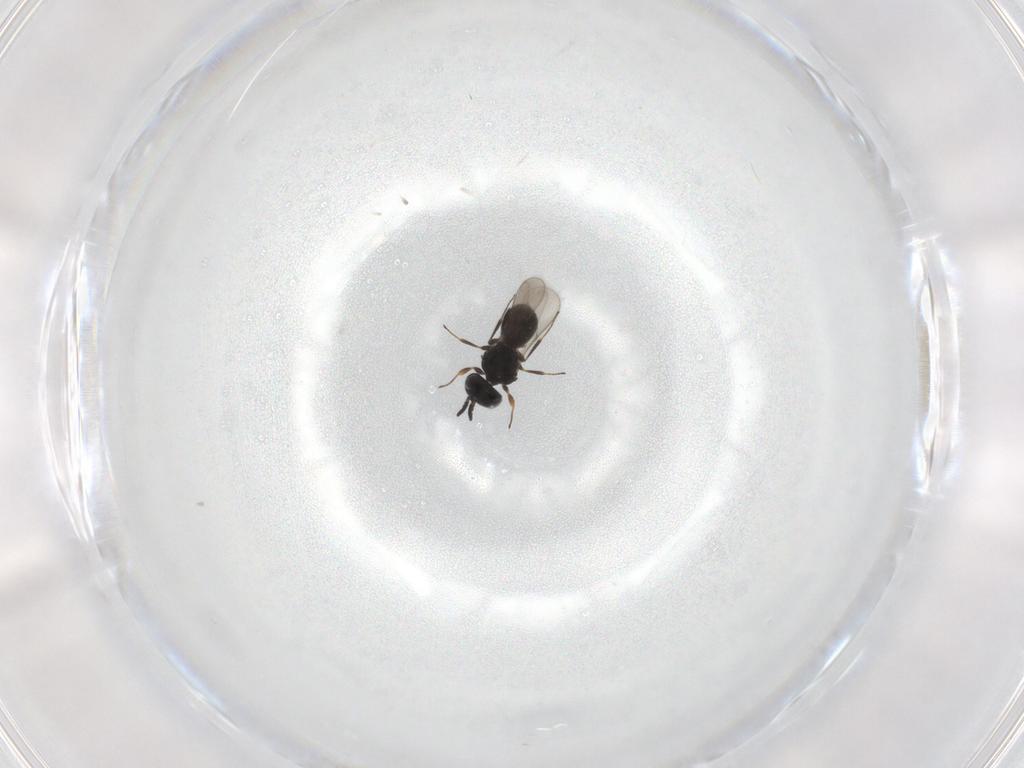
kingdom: Animalia
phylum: Arthropoda
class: Insecta
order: Hymenoptera
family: Scelionidae
